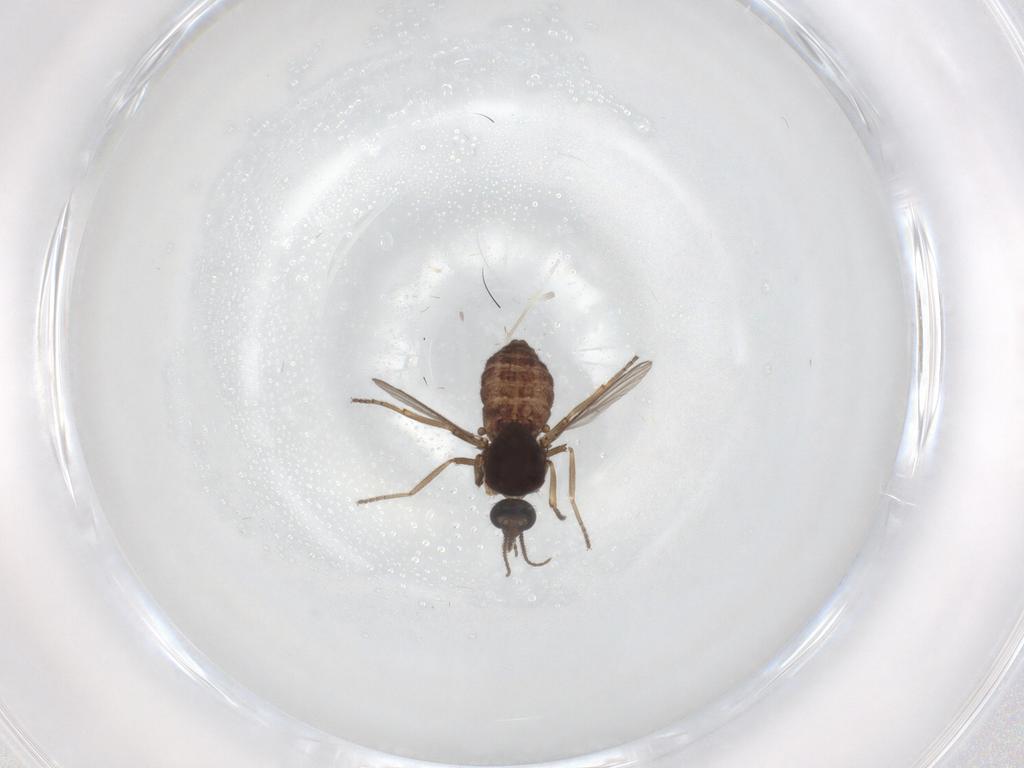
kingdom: Animalia
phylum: Arthropoda
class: Insecta
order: Diptera
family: Ceratopogonidae
